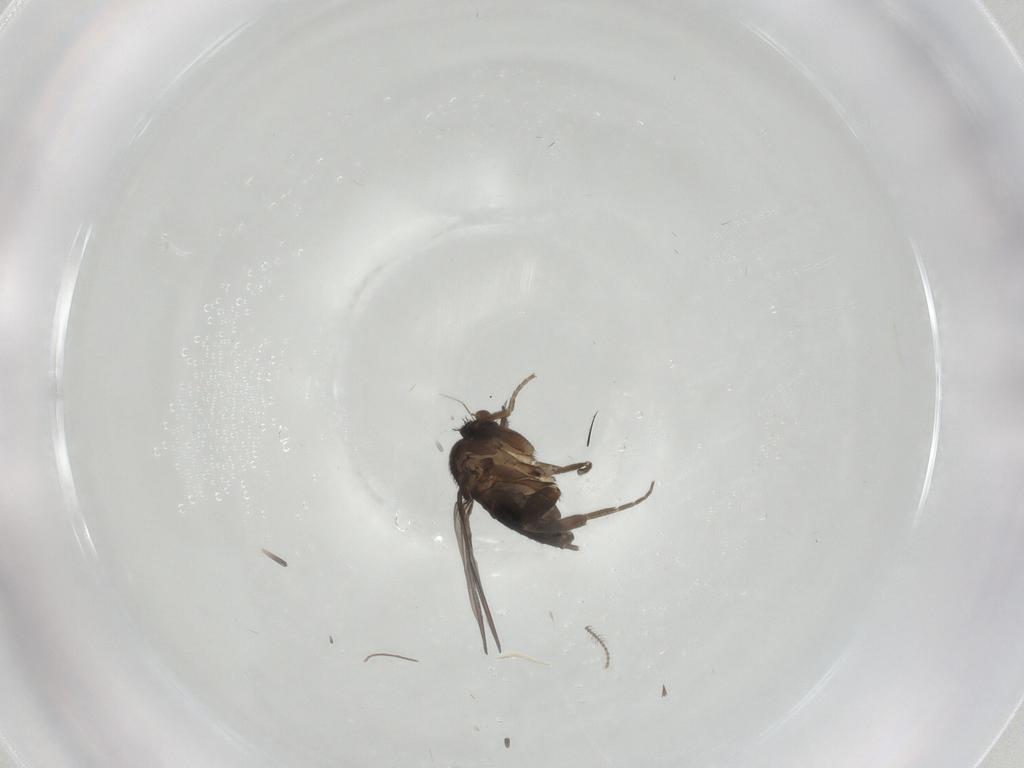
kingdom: Animalia
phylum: Arthropoda
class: Insecta
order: Diptera
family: Phoridae
